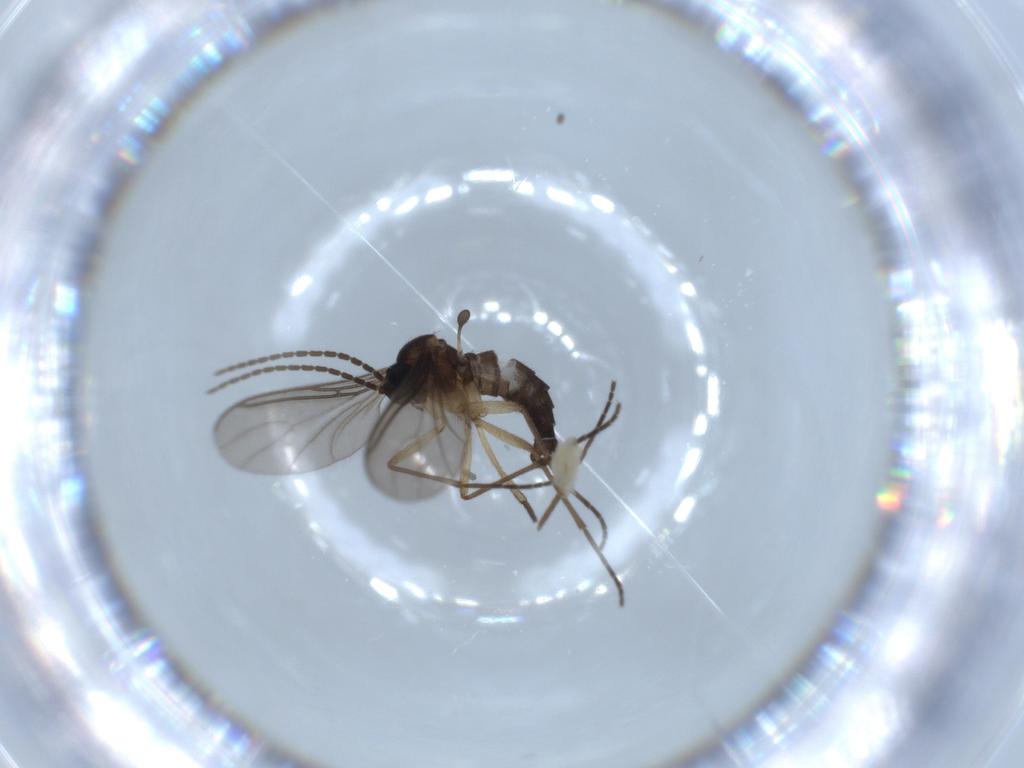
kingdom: Animalia
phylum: Arthropoda
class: Insecta
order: Diptera
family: Sciaridae
